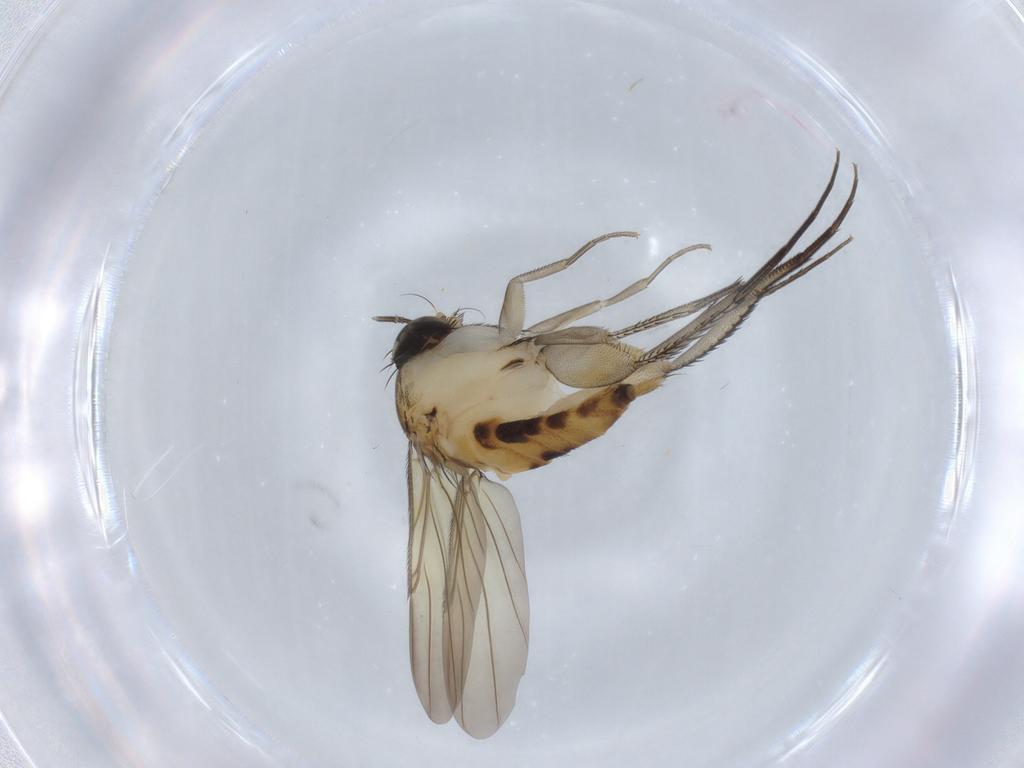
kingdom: Animalia
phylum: Arthropoda
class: Insecta
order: Diptera
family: Phoridae
